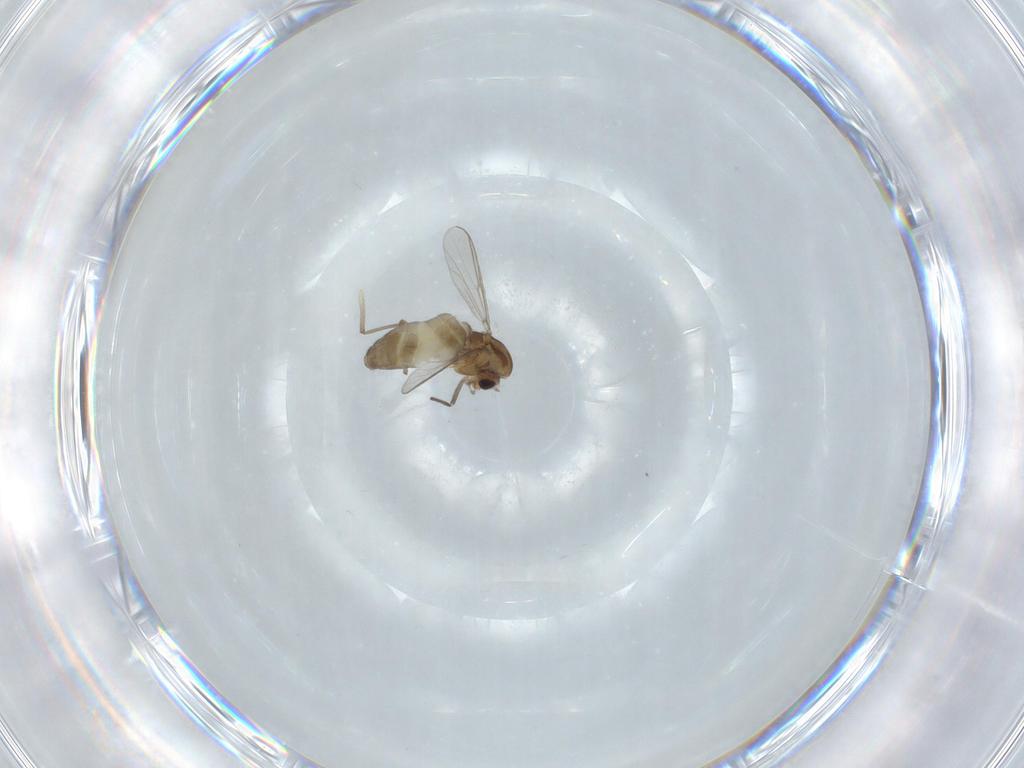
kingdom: Animalia
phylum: Arthropoda
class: Insecta
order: Diptera
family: Chironomidae
